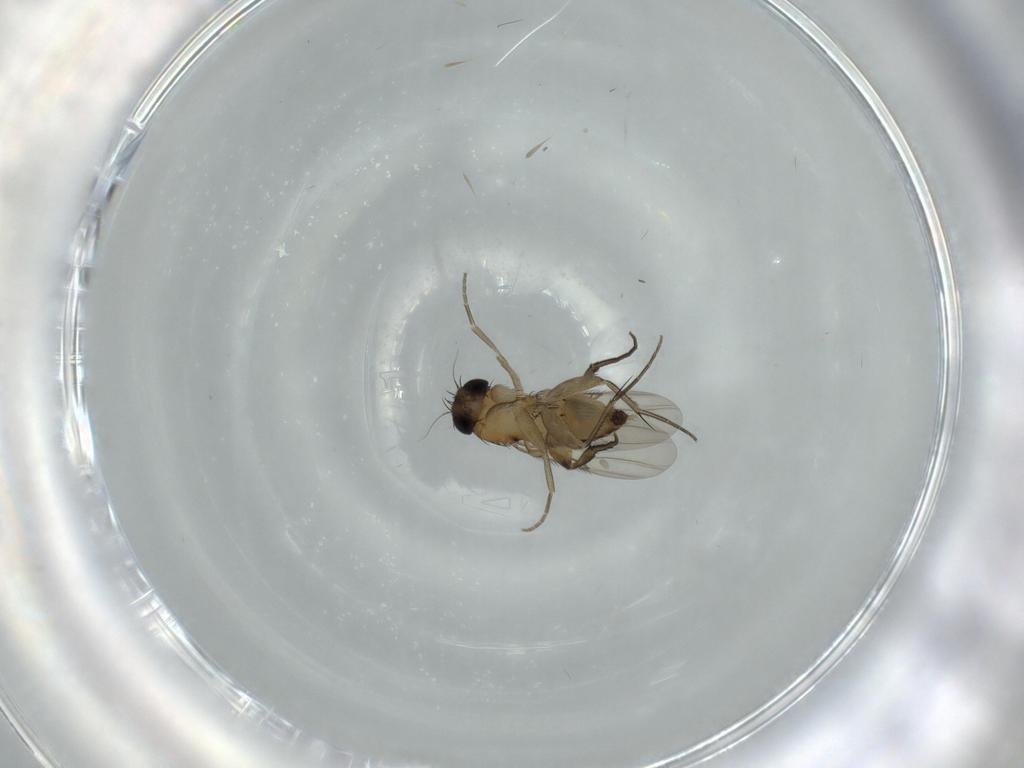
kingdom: Animalia
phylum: Arthropoda
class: Insecta
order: Diptera
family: Phoridae
